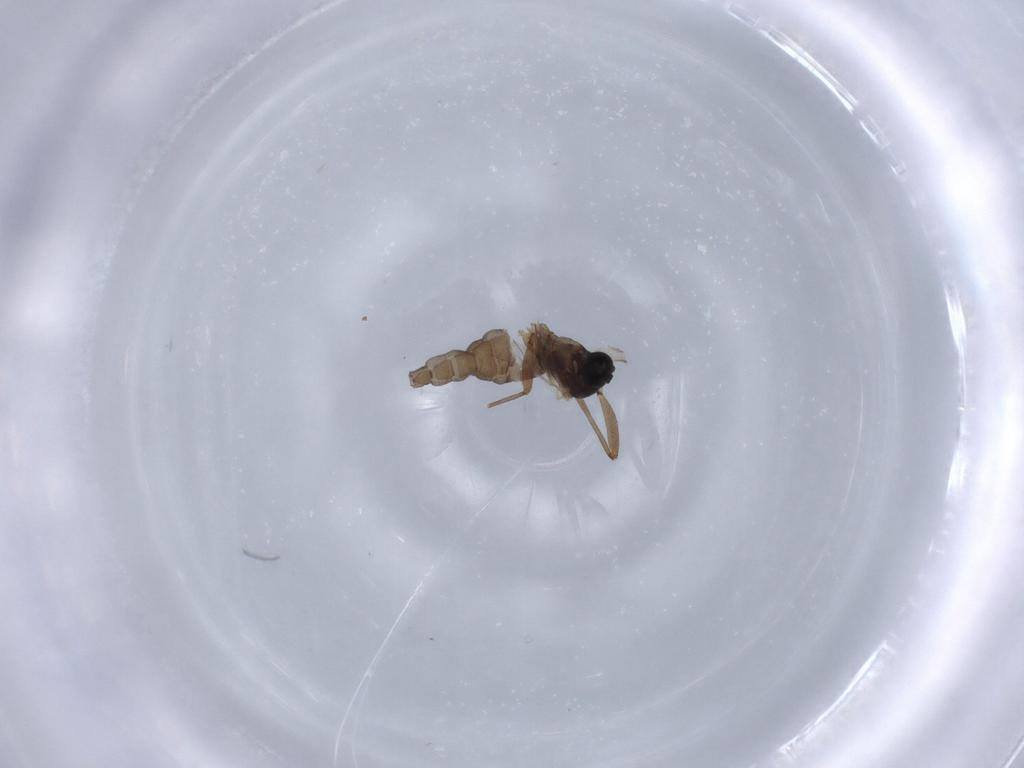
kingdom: Animalia
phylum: Arthropoda
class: Insecta
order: Diptera
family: Syrphidae
